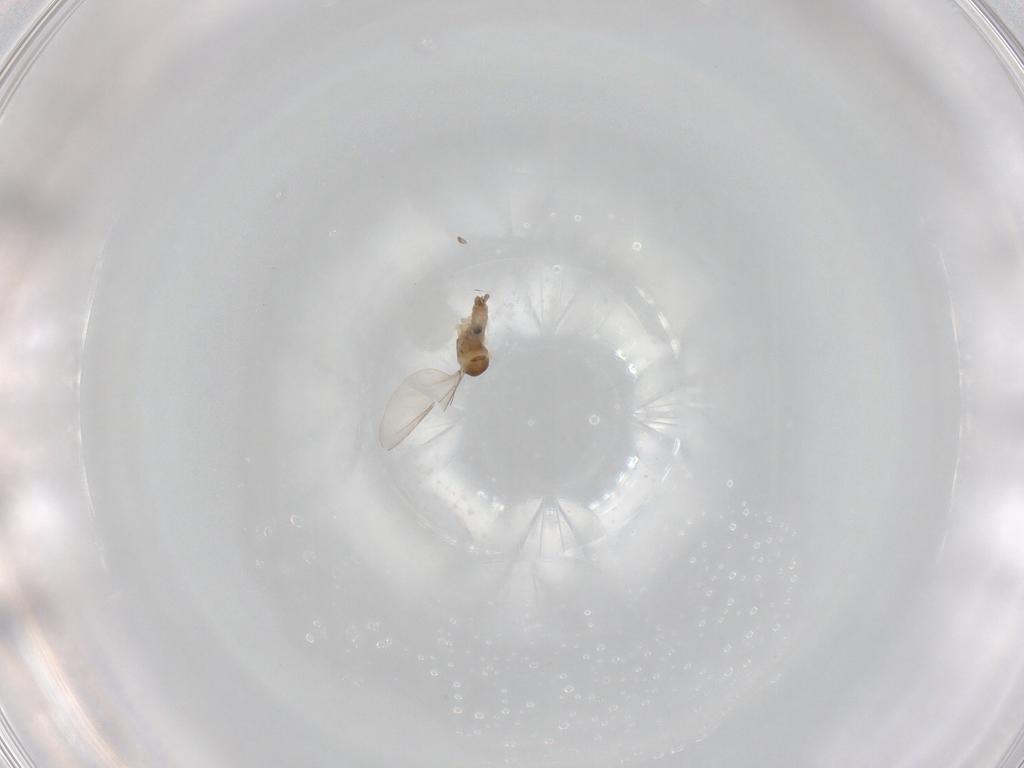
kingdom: Animalia
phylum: Arthropoda
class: Insecta
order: Diptera
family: Cecidomyiidae
